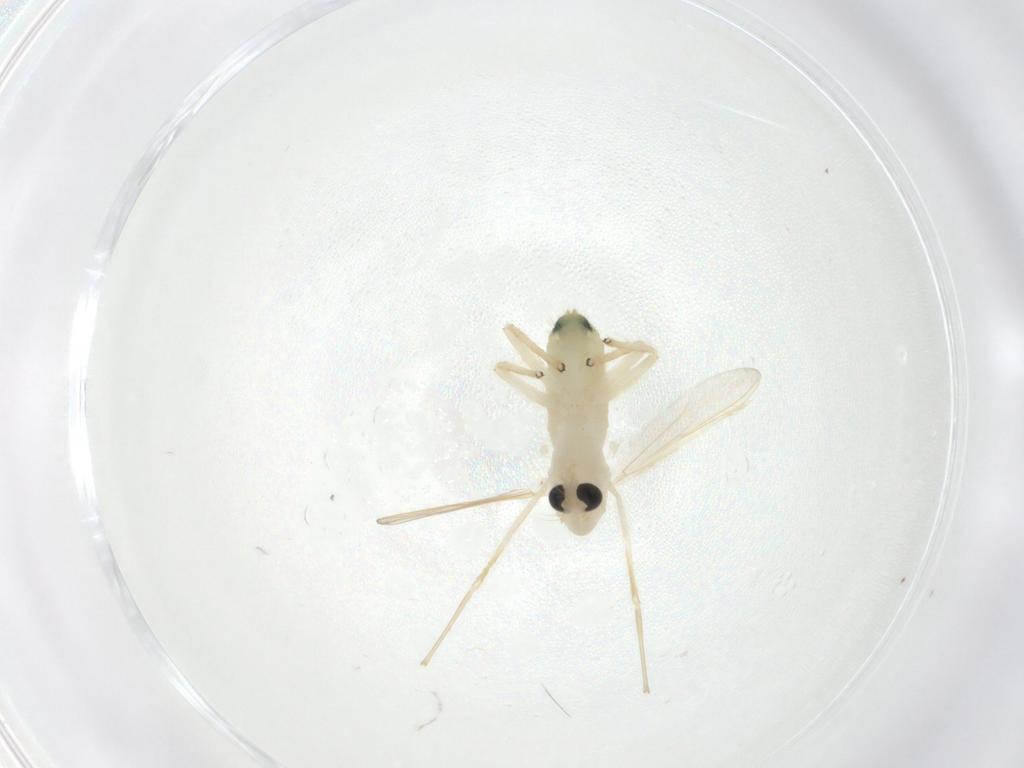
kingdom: Animalia
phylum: Arthropoda
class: Insecta
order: Diptera
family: Chironomidae
